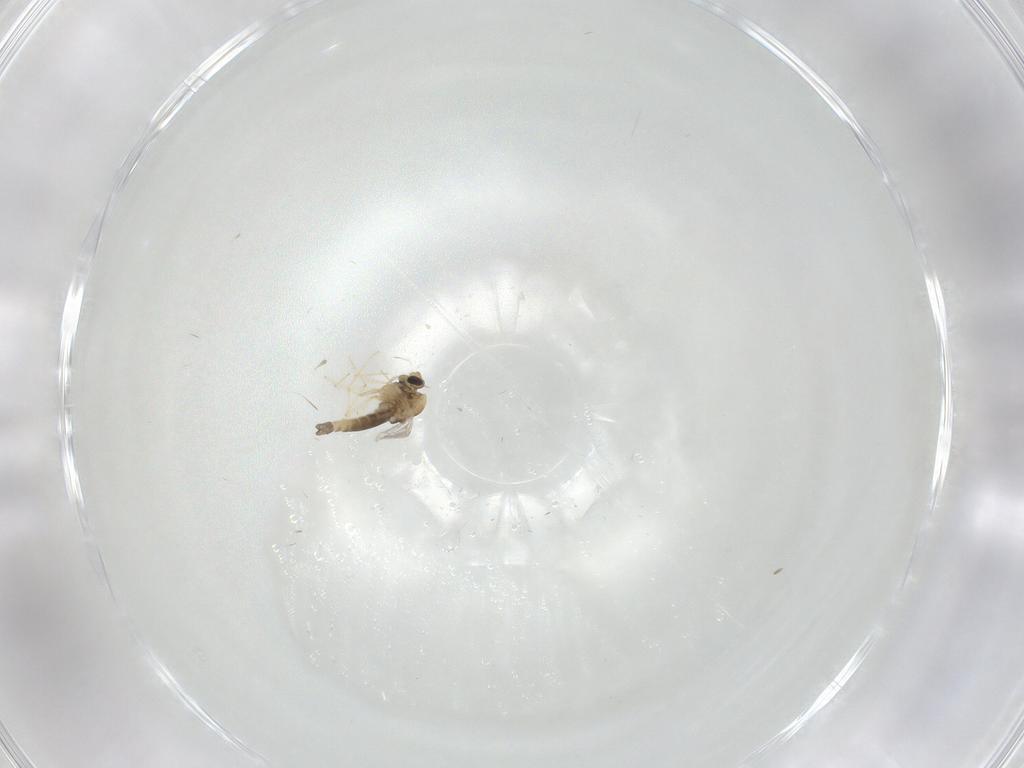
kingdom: Animalia
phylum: Arthropoda
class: Insecta
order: Diptera
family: Chironomidae
